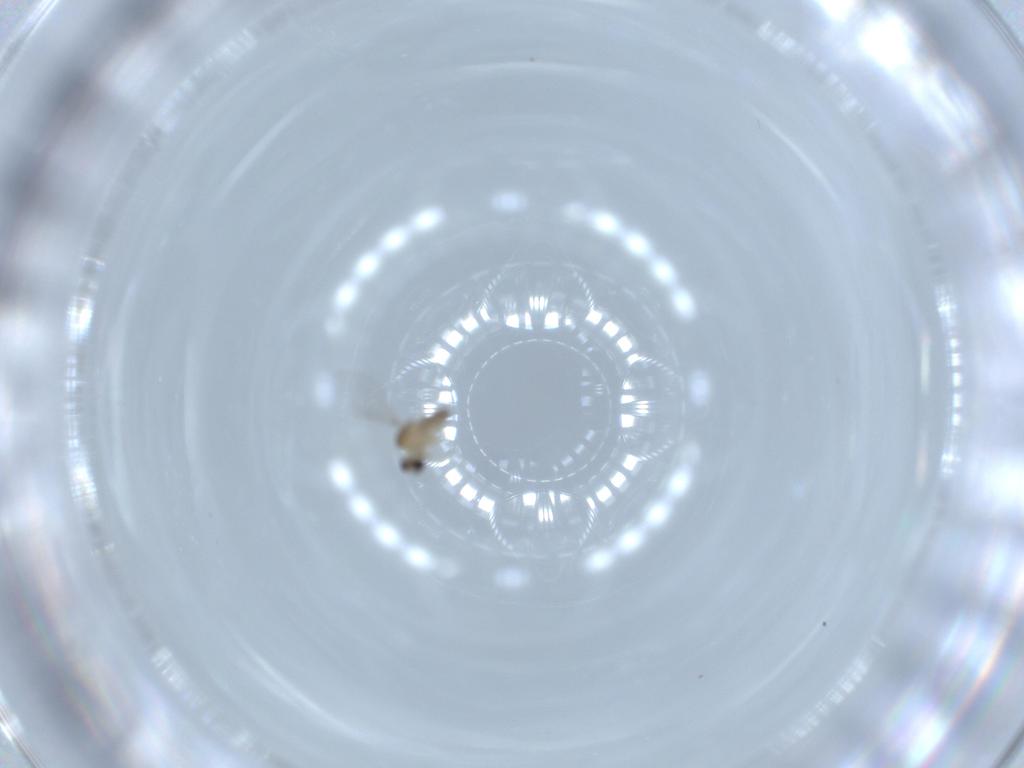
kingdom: Animalia
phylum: Arthropoda
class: Insecta
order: Diptera
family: Cecidomyiidae
